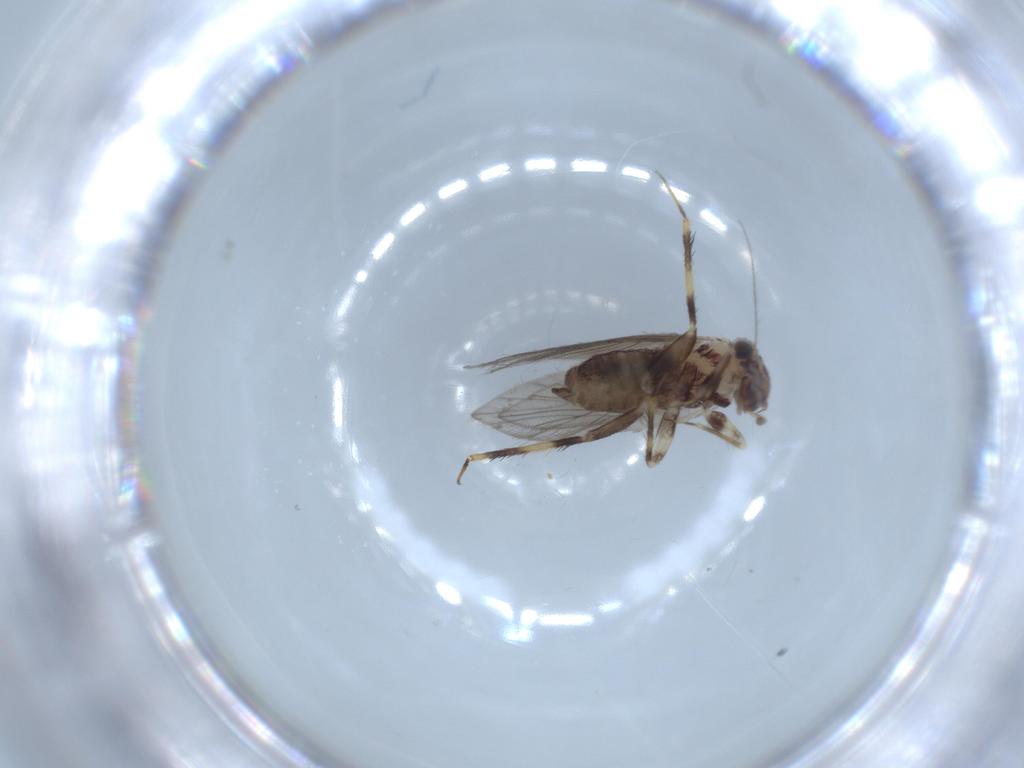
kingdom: Animalia
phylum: Arthropoda
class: Insecta
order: Psocodea
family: Lepidopsocidae
